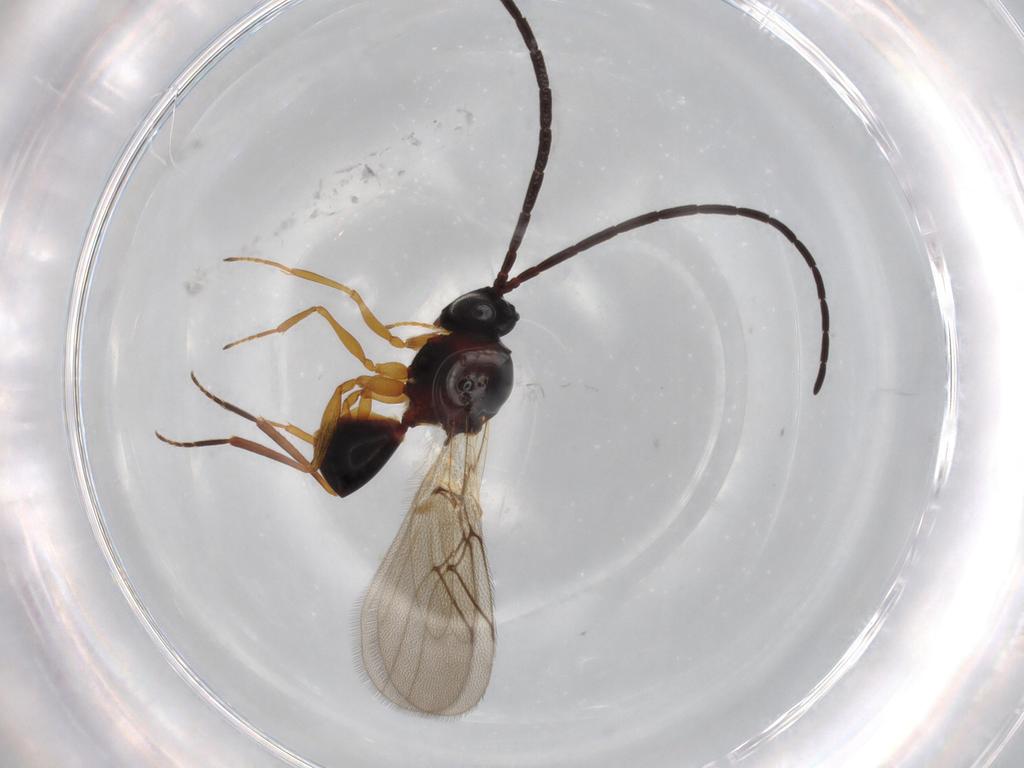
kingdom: Animalia
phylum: Arthropoda
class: Insecta
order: Hymenoptera
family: Figitidae
